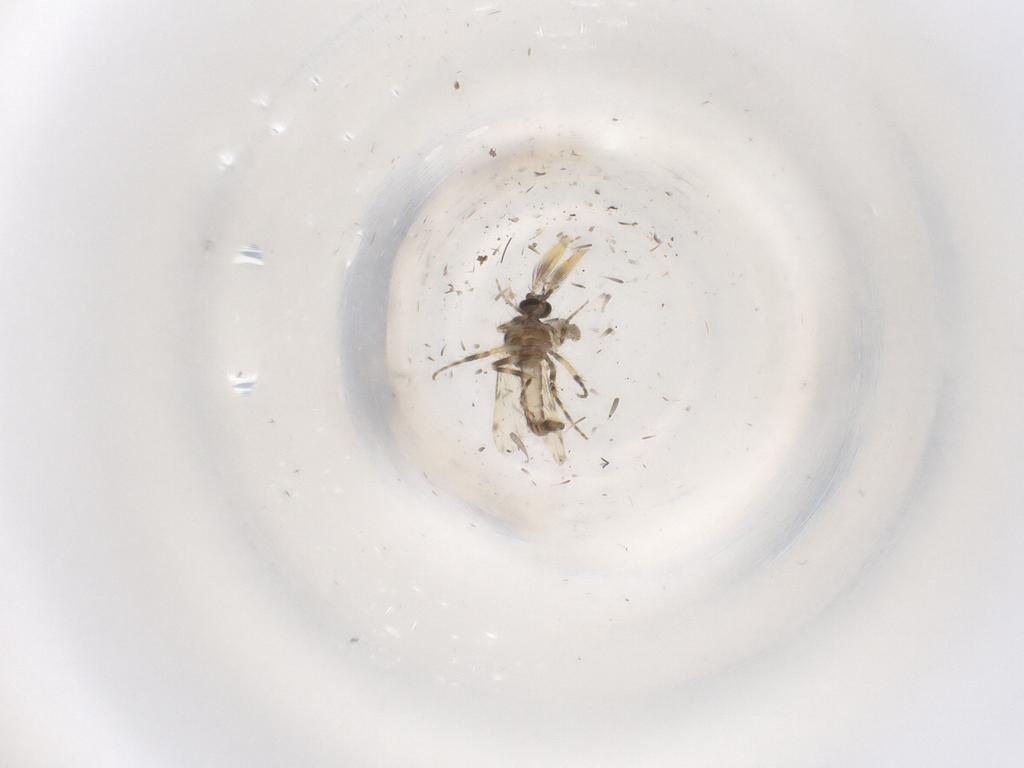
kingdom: Animalia
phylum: Arthropoda
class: Insecta
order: Diptera
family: Ceratopogonidae
